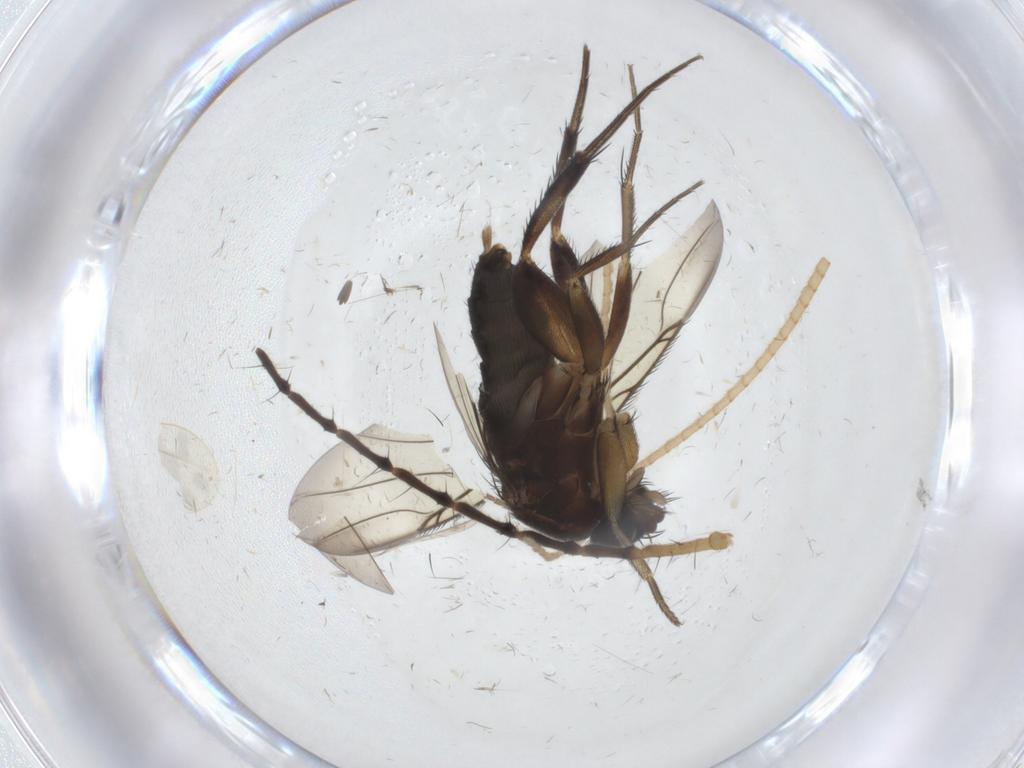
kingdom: Animalia
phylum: Arthropoda
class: Insecta
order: Diptera
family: Phoridae
